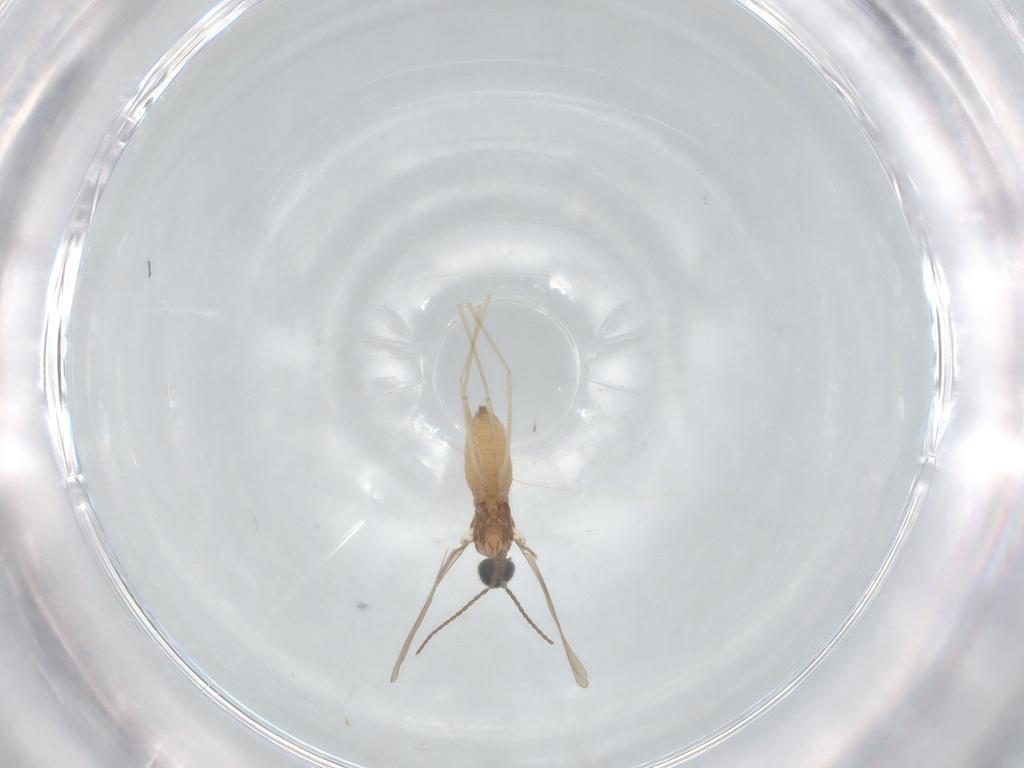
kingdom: Animalia
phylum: Arthropoda
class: Insecta
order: Diptera
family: Cecidomyiidae
